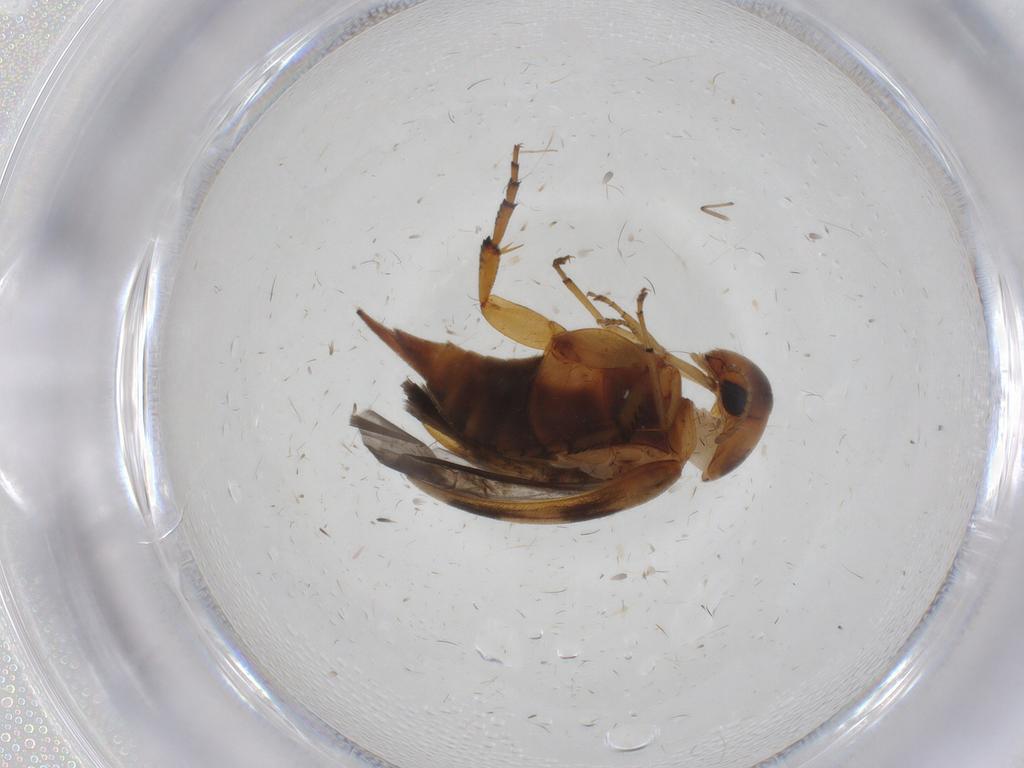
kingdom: Animalia
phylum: Arthropoda
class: Insecta
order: Coleoptera
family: Mordellidae
